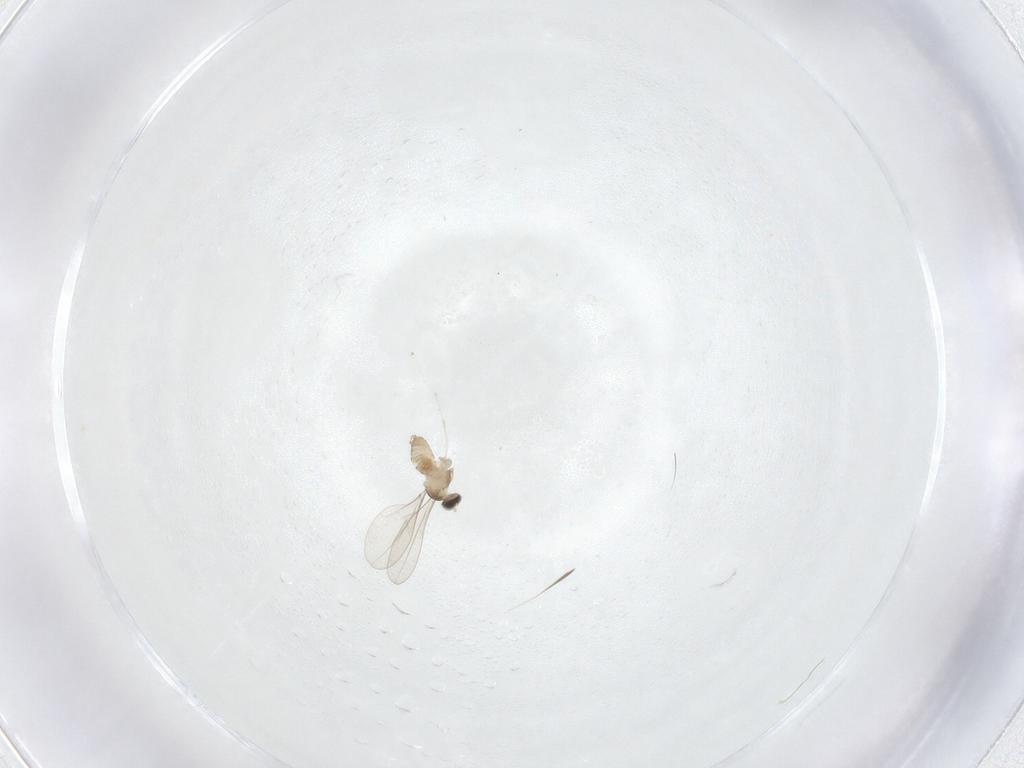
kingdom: Animalia
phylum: Arthropoda
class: Insecta
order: Diptera
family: Cecidomyiidae
